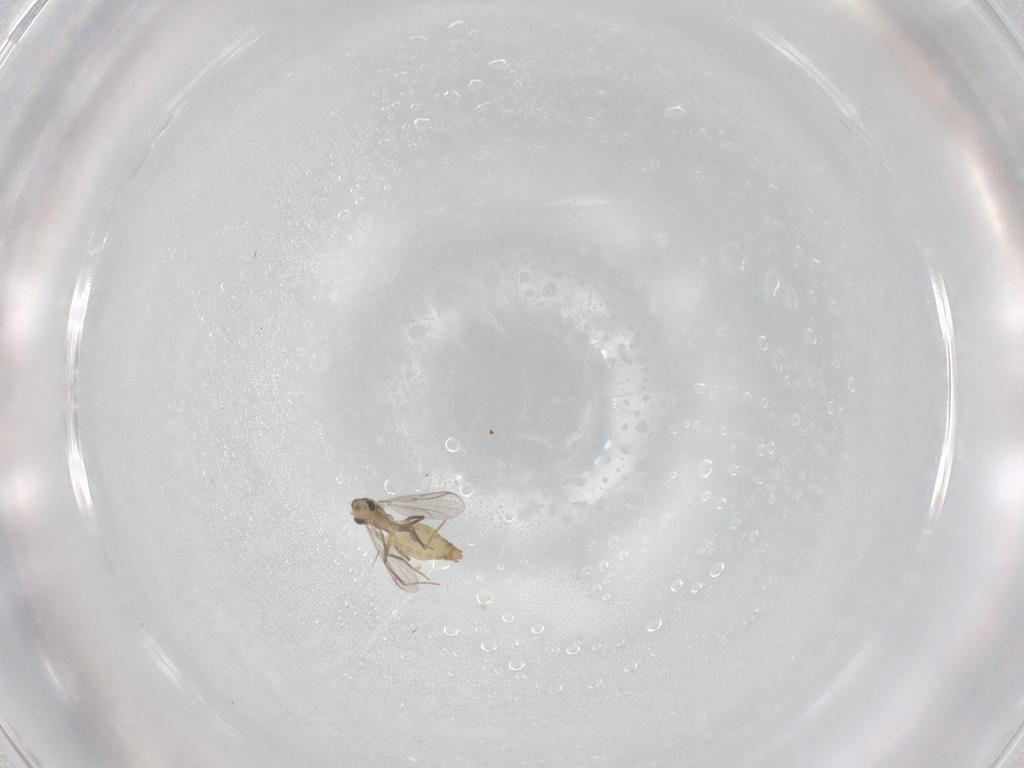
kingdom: Animalia
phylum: Arthropoda
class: Insecta
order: Diptera
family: Chironomidae
